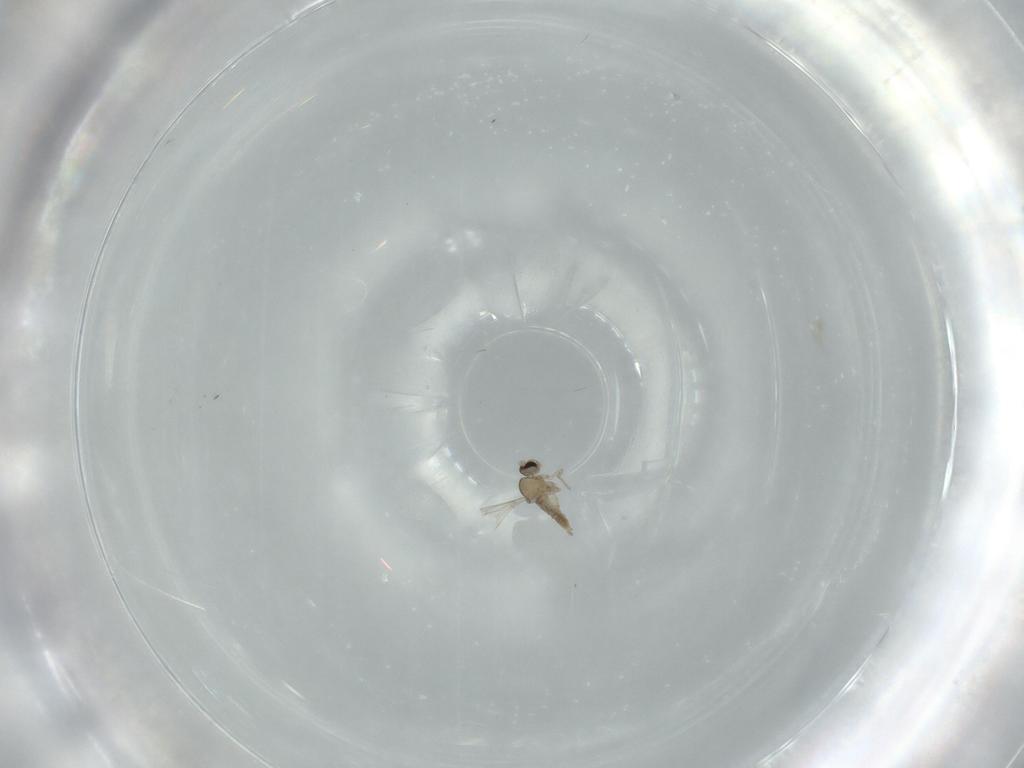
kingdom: Animalia
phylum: Arthropoda
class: Insecta
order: Diptera
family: Cecidomyiidae
